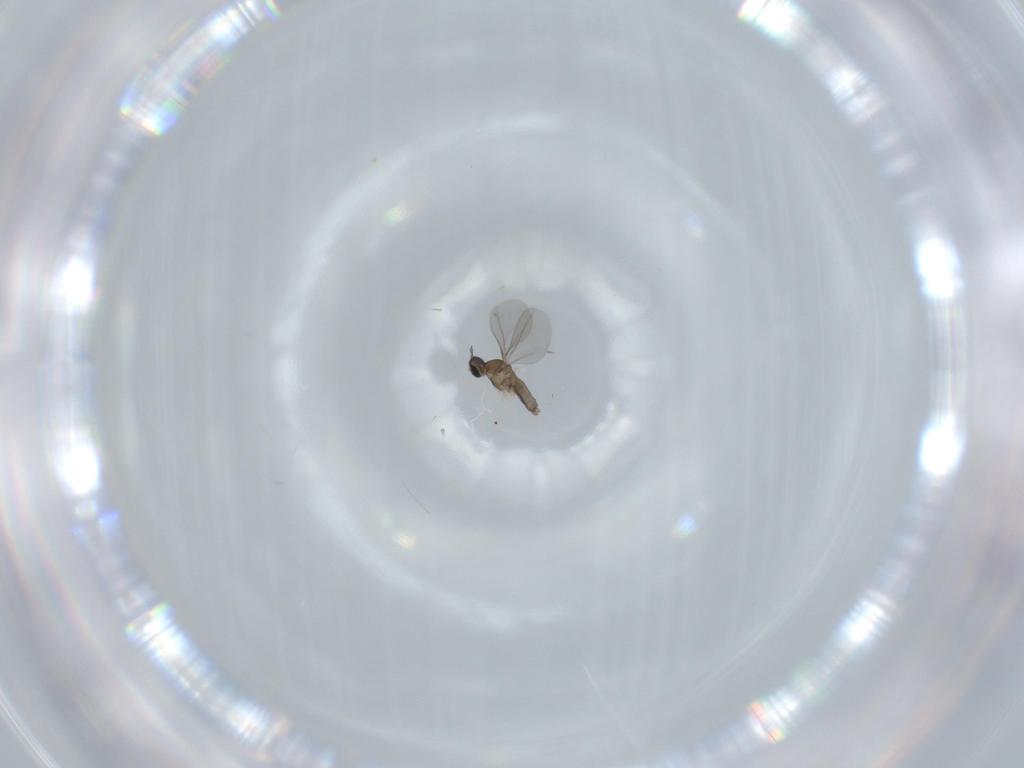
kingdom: Animalia
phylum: Arthropoda
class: Insecta
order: Diptera
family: Cecidomyiidae
